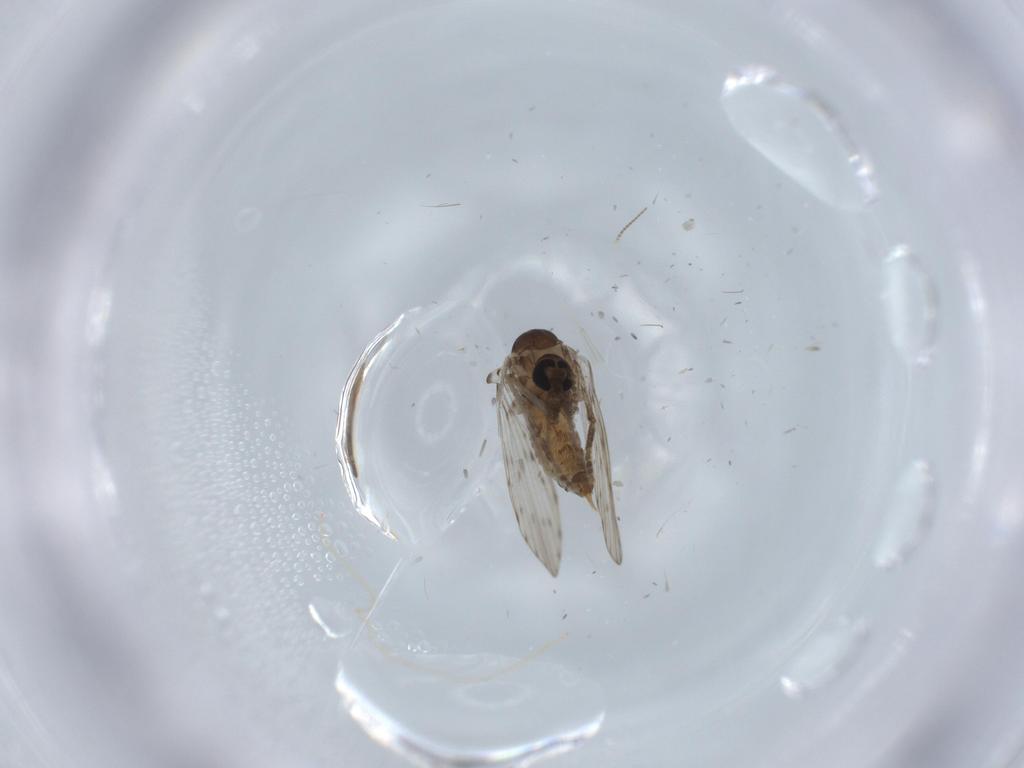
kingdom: Animalia
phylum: Arthropoda
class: Insecta
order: Diptera
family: Psychodidae
